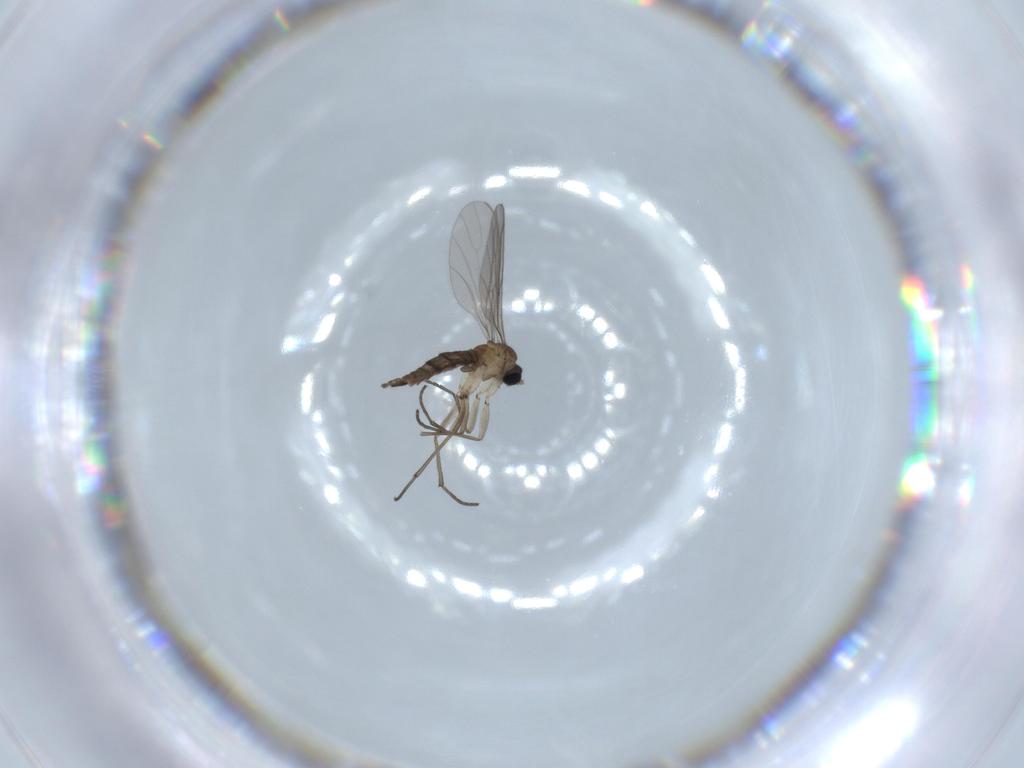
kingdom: Animalia
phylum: Arthropoda
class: Insecta
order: Diptera
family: Sciaridae
